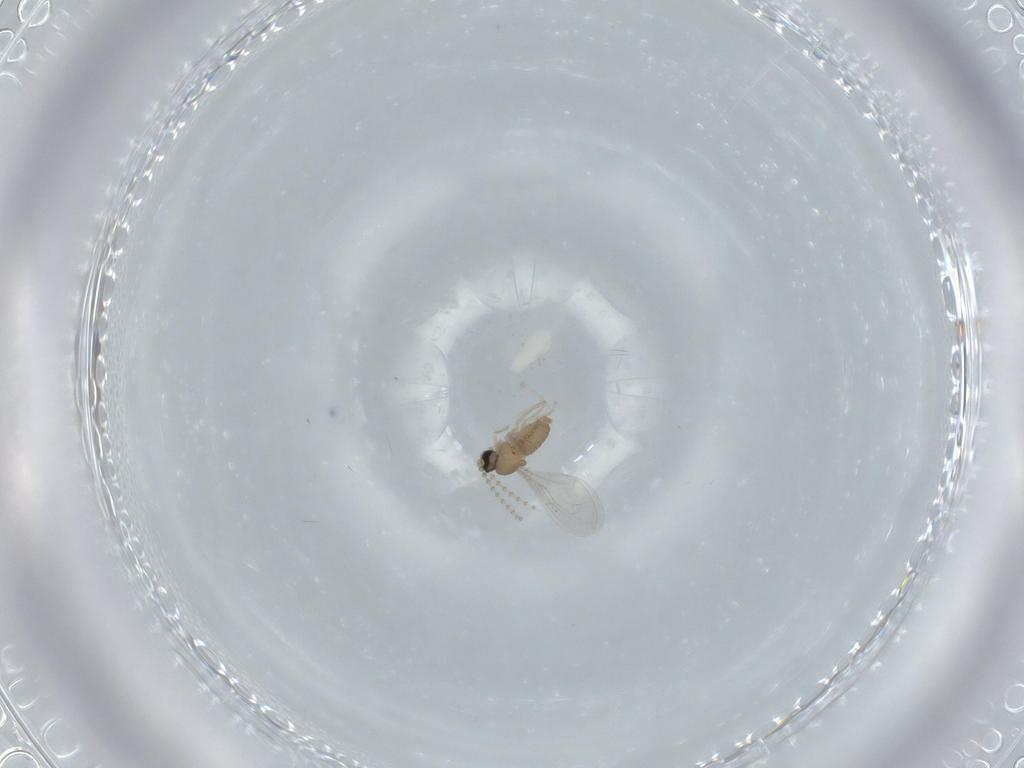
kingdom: Animalia
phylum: Arthropoda
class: Insecta
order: Diptera
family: Cecidomyiidae
